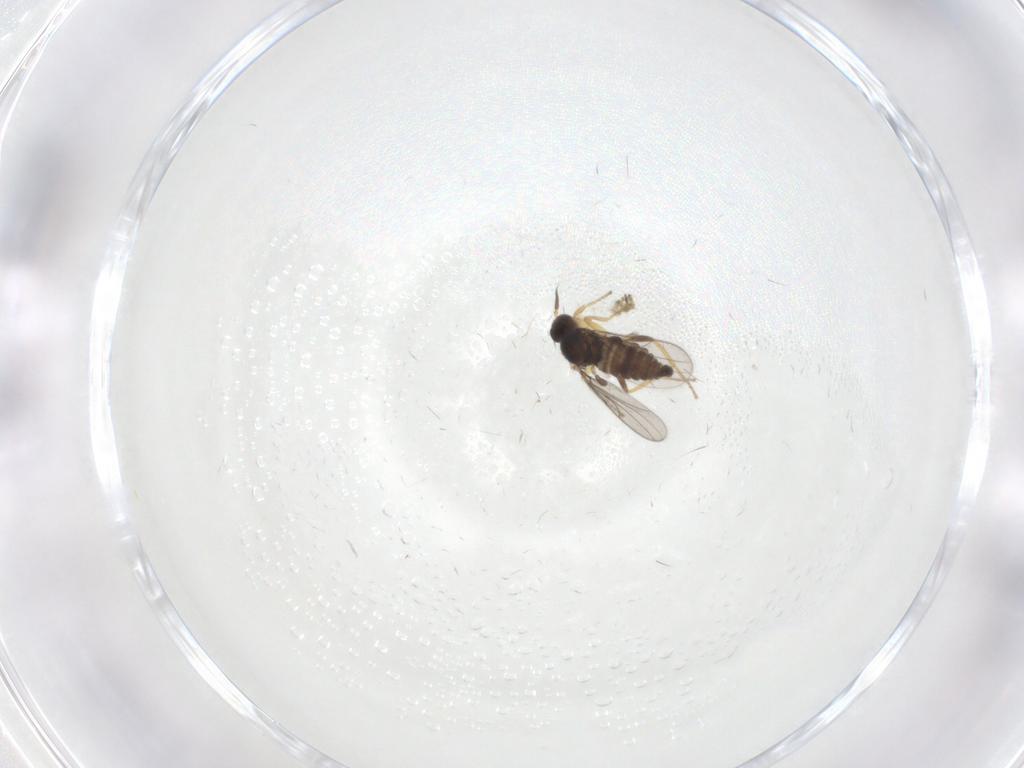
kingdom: Animalia
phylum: Arthropoda
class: Insecta
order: Diptera
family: Hybotidae
